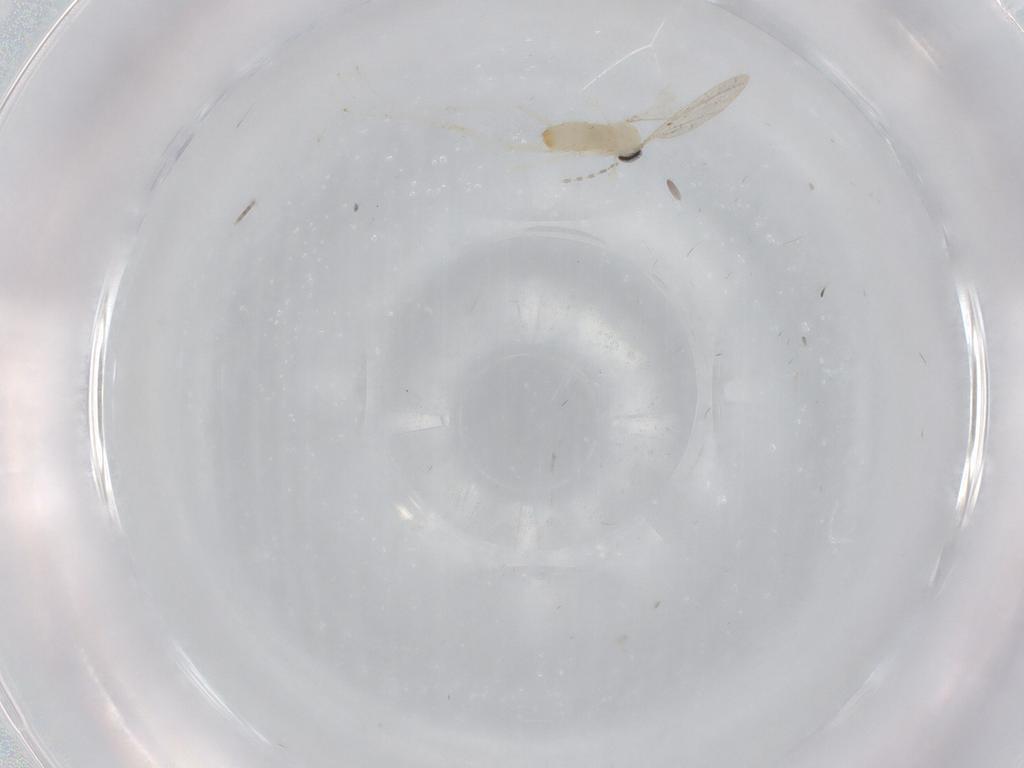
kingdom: Animalia
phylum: Arthropoda
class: Insecta
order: Diptera
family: Cecidomyiidae
